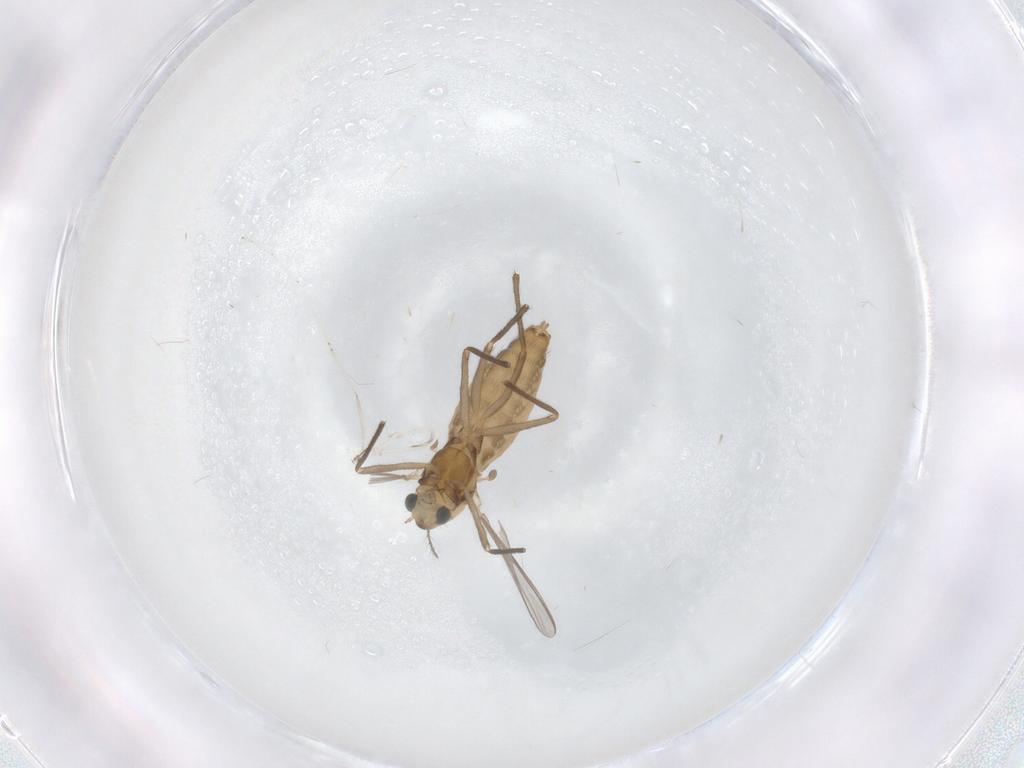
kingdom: Animalia
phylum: Arthropoda
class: Insecta
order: Diptera
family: Chironomidae
